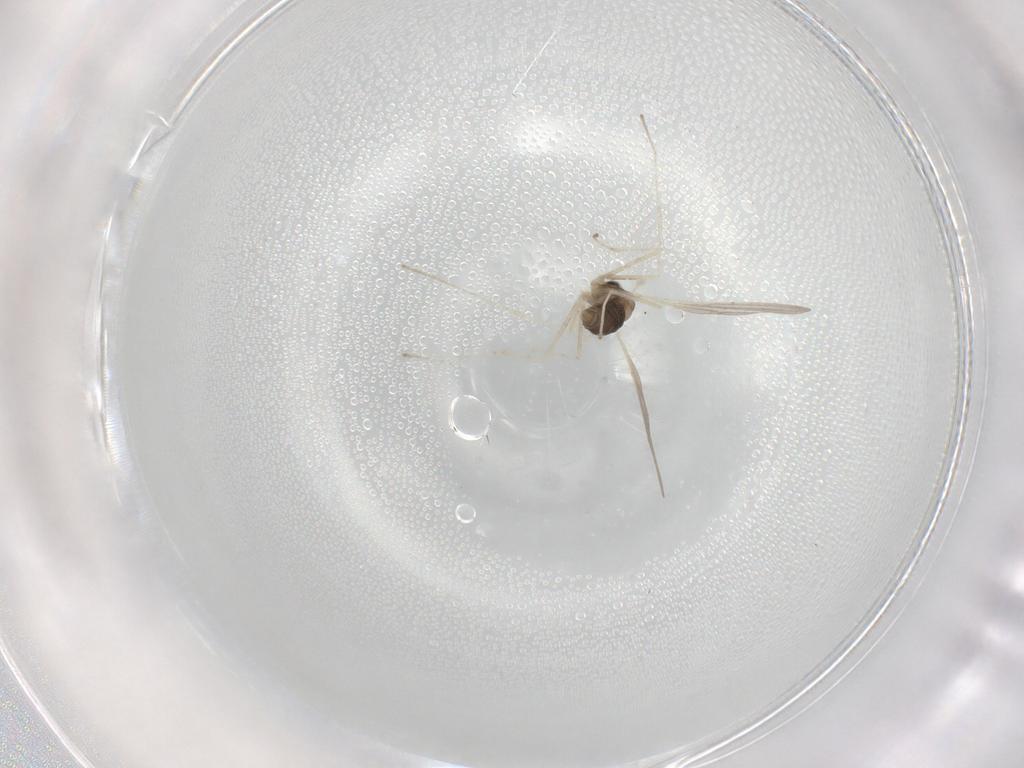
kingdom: Animalia
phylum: Arthropoda
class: Insecta
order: Diptera
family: Cecidomyiidae
